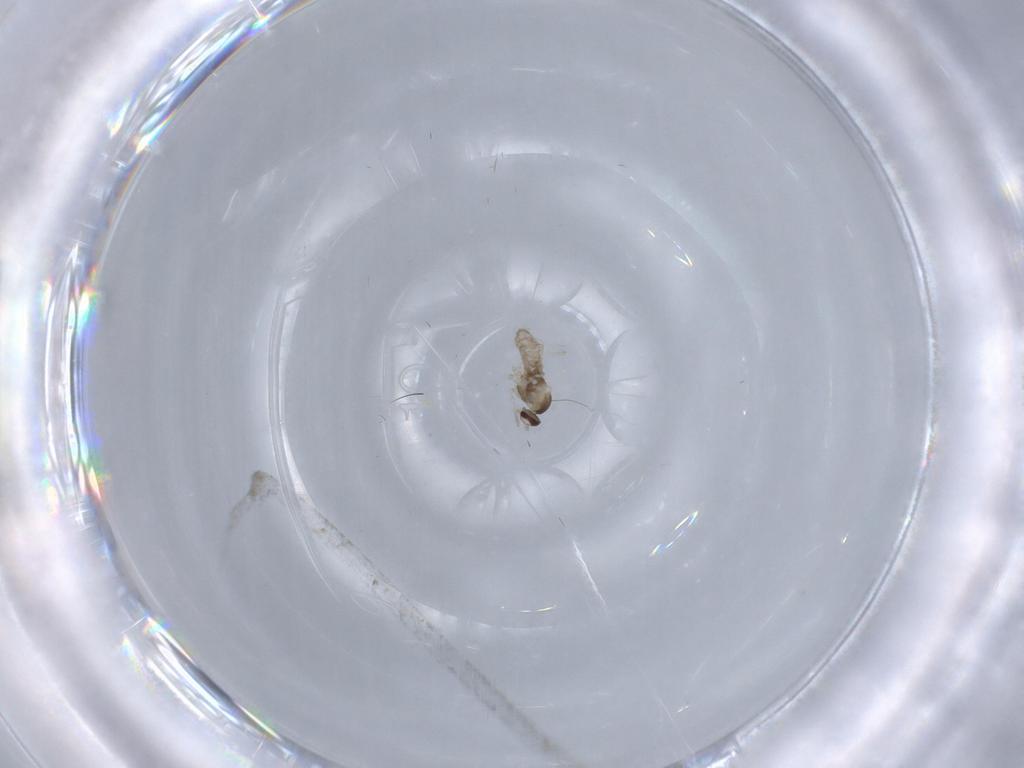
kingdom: Animalia
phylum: Arthropoda
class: Insecta
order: Diptera
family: Cecidomyiidae
